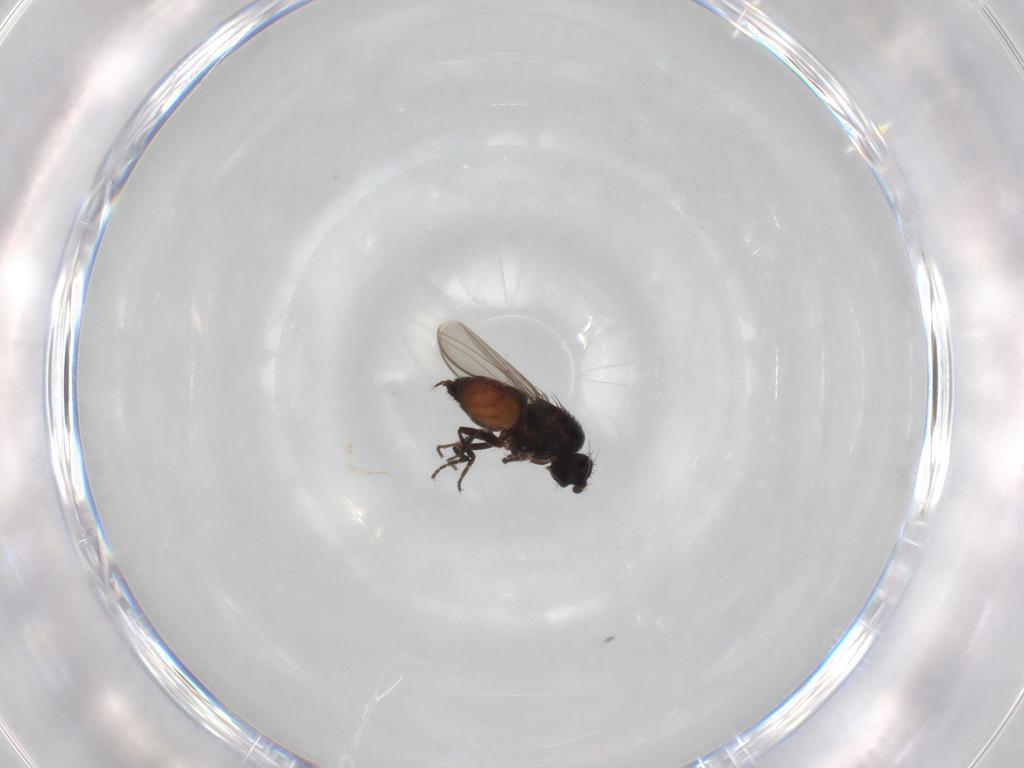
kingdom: Animalia
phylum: Arthropoda
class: Insecta
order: Diptera
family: Sphaeroceridae
